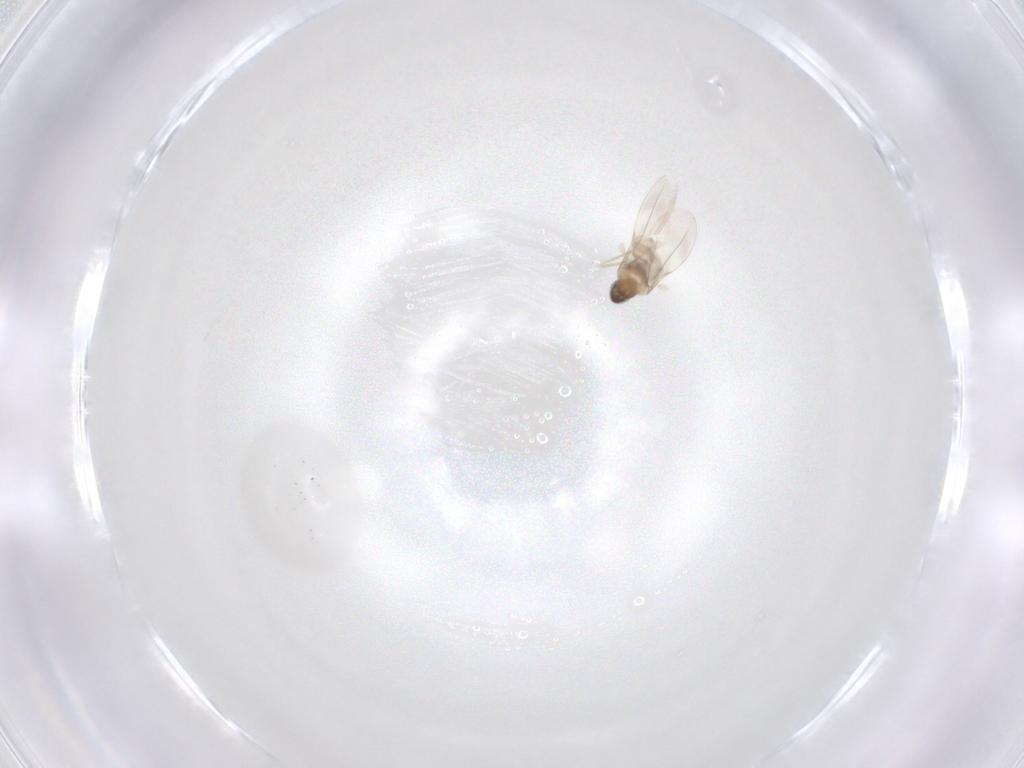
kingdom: Animalia
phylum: Arthropoda
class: Insecta
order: Diptera
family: Cecidomyiidae
